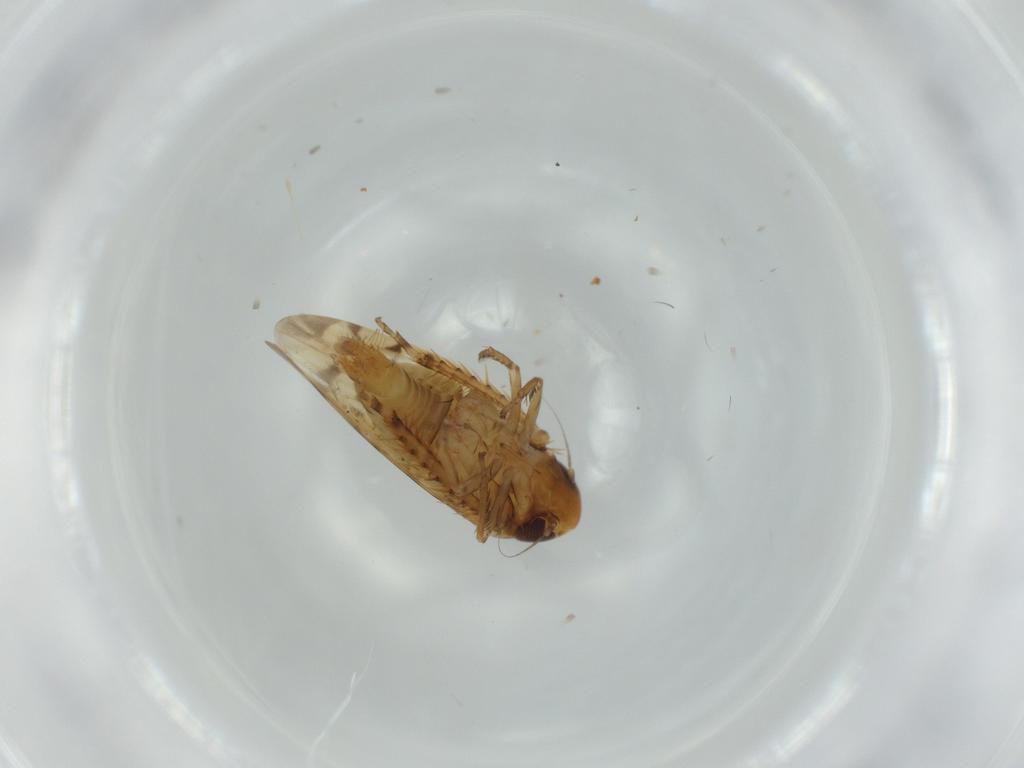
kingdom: Animalia
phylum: Arthropoda
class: Insecta
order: Hemiptera
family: Cicadellidae
